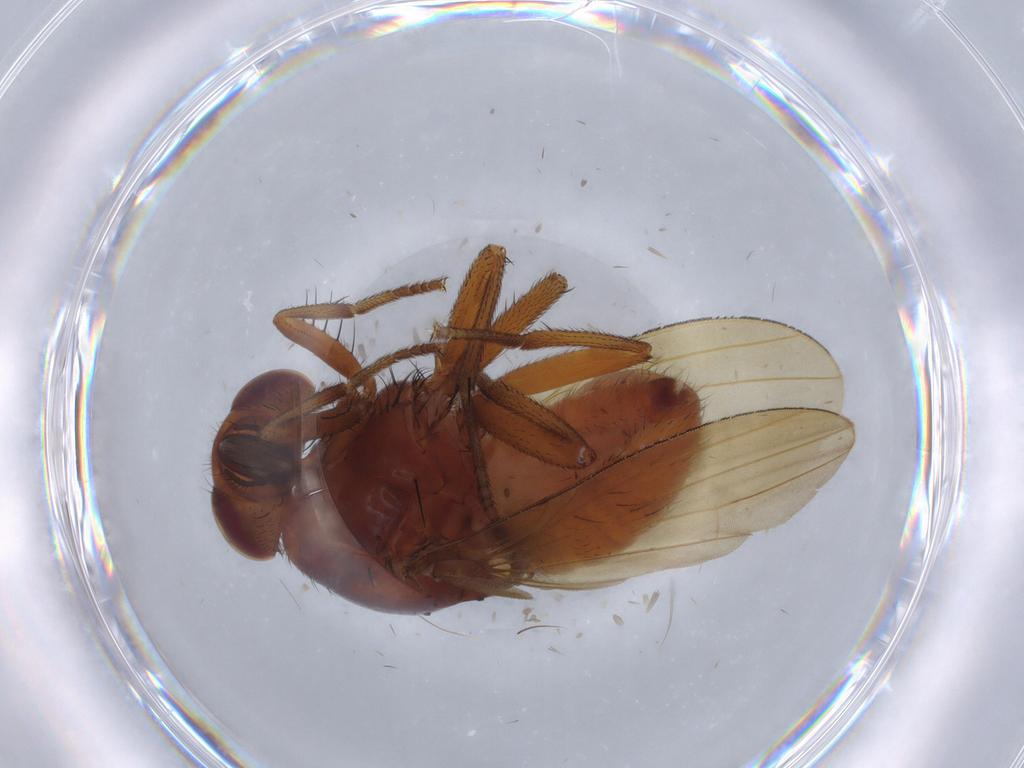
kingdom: Animalia
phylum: Arthropoda
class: Insecta
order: Diptera
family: Lauxaniidae
